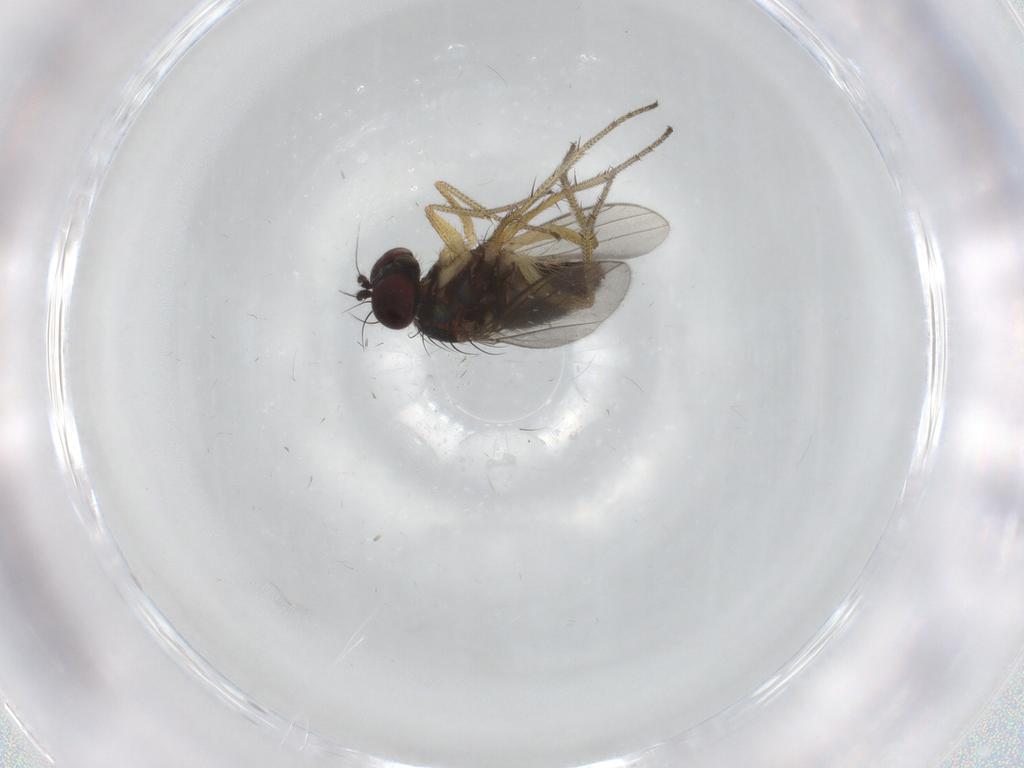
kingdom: Animalia
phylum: Arthropoda
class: Insecta
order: Diptera
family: Dolichopodidae
